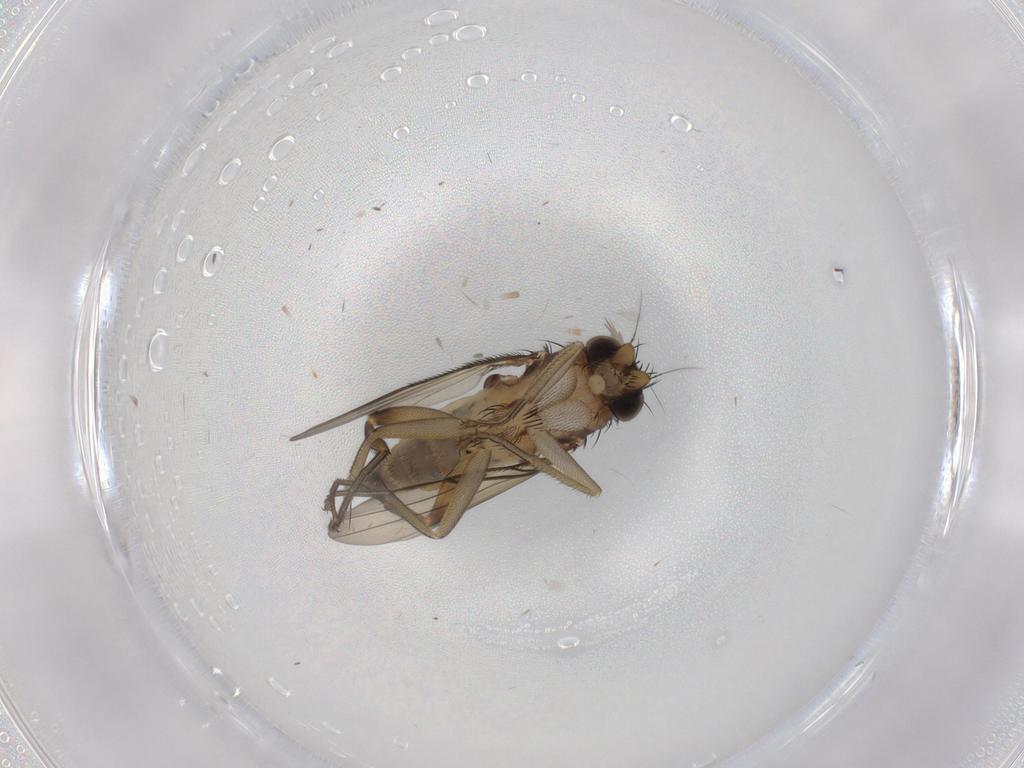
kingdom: Animalia
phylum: Arthropoda
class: Insecta
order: Diptera
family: Phoridae
